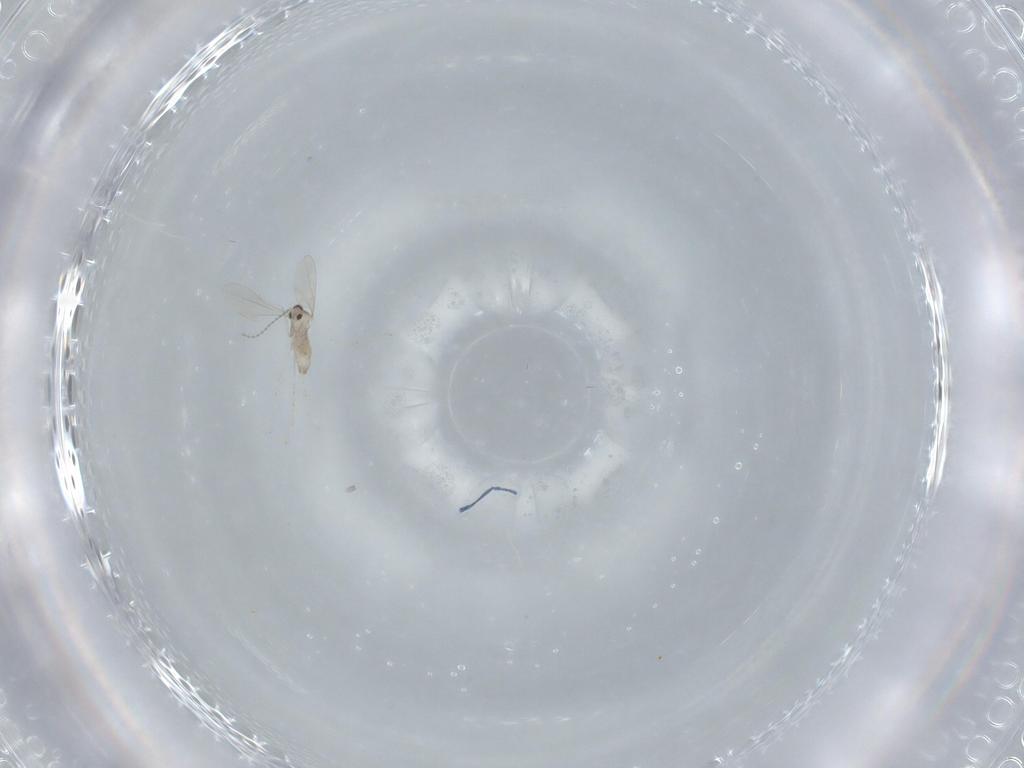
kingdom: Animalia
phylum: Arthropoda
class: Insecta
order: Diptera
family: Cecidomyiidae
